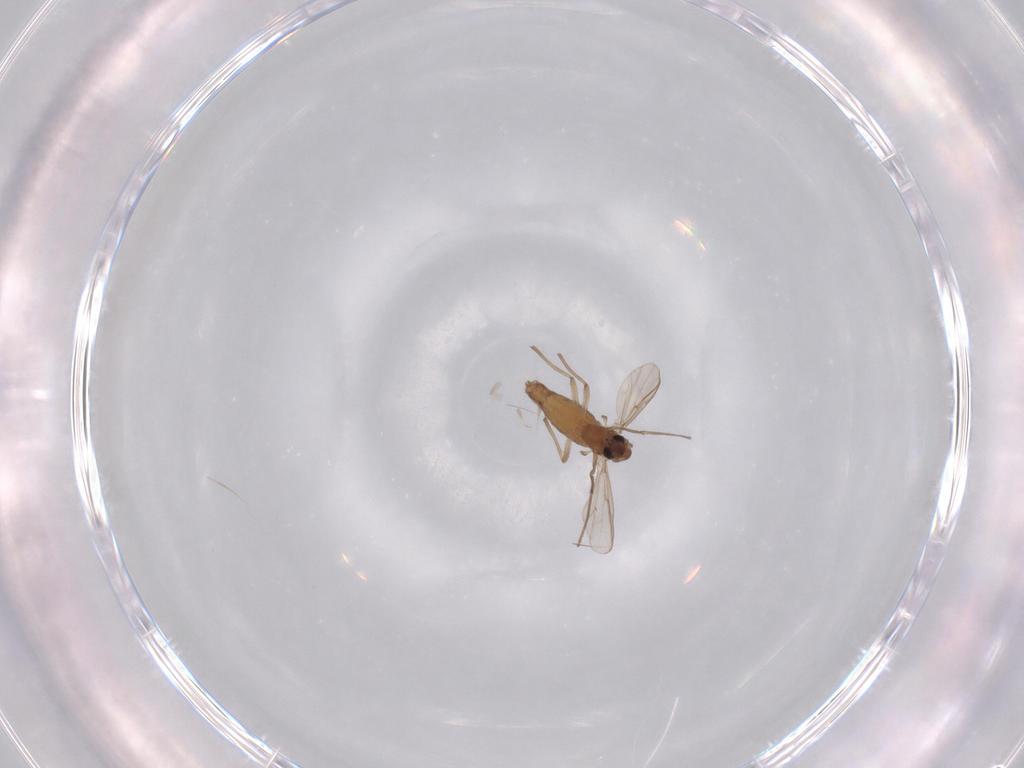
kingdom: Animalia
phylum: Arthropoda
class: Insecta
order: Diptera
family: Chironomidae
